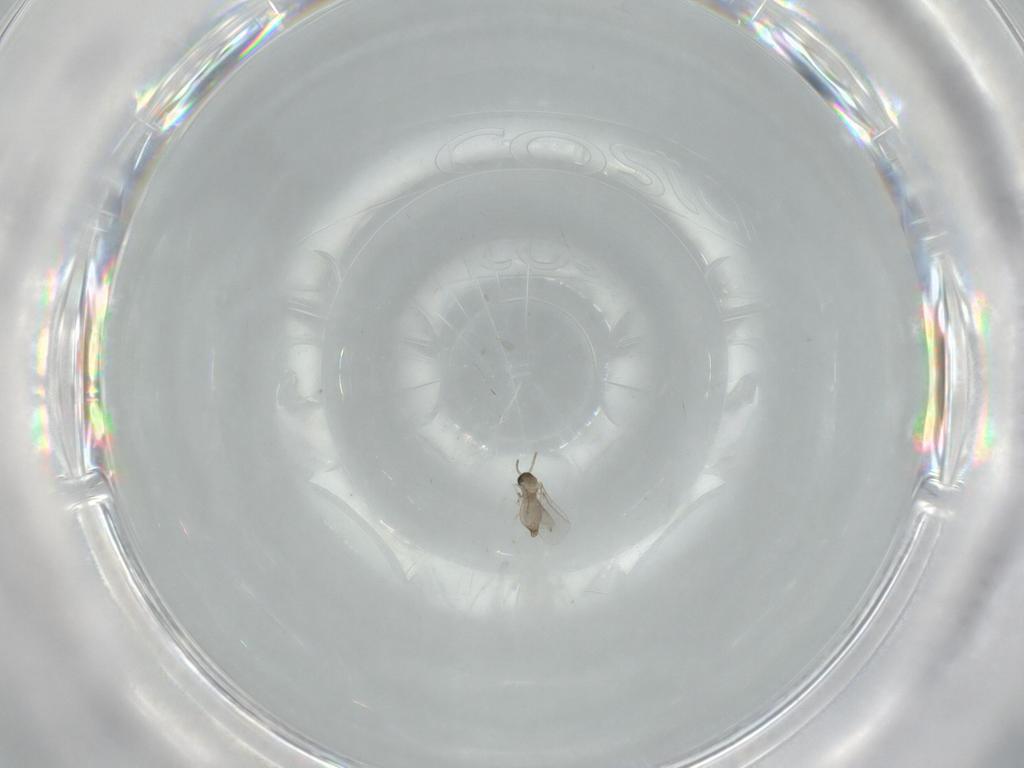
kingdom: Animalia
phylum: Arthropoda
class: Insecta
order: Diptera
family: Cecidomyiidae
